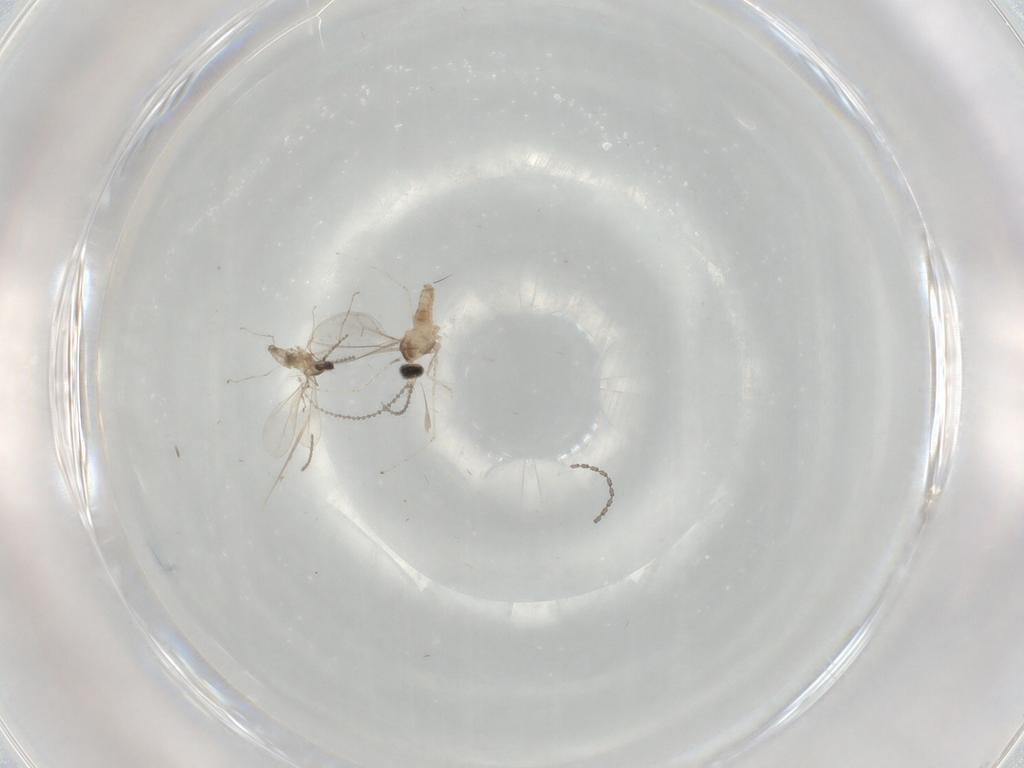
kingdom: Animalia
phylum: Arthropoda
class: Insecta
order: Diptera
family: Cecidomyiidae
